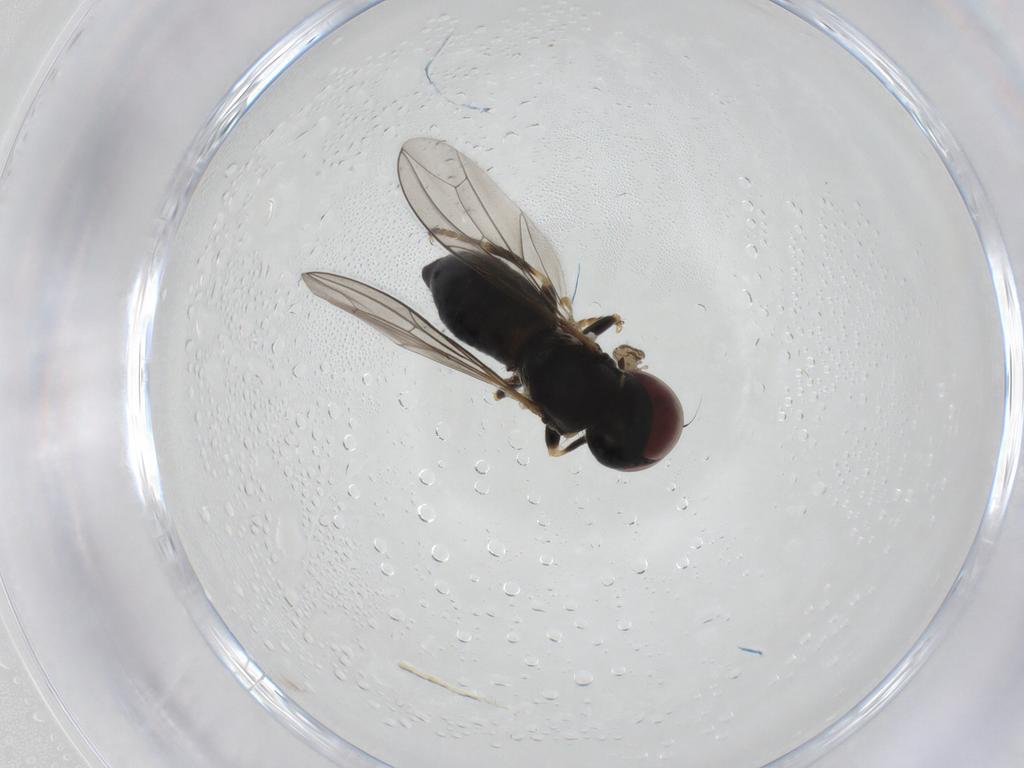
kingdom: Animalia
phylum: Arthropoda
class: Insecta
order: Diptera
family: Pipunculidae
